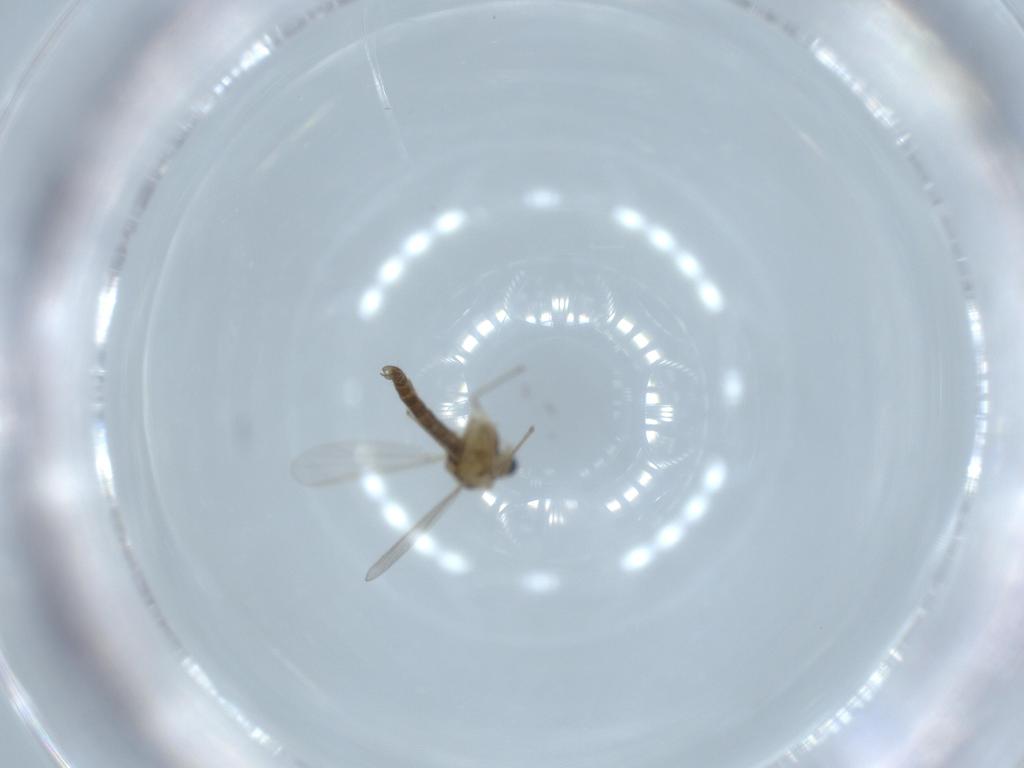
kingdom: Animalia
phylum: Arthropoda
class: Insecta
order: Diptera
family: Chironomidae
